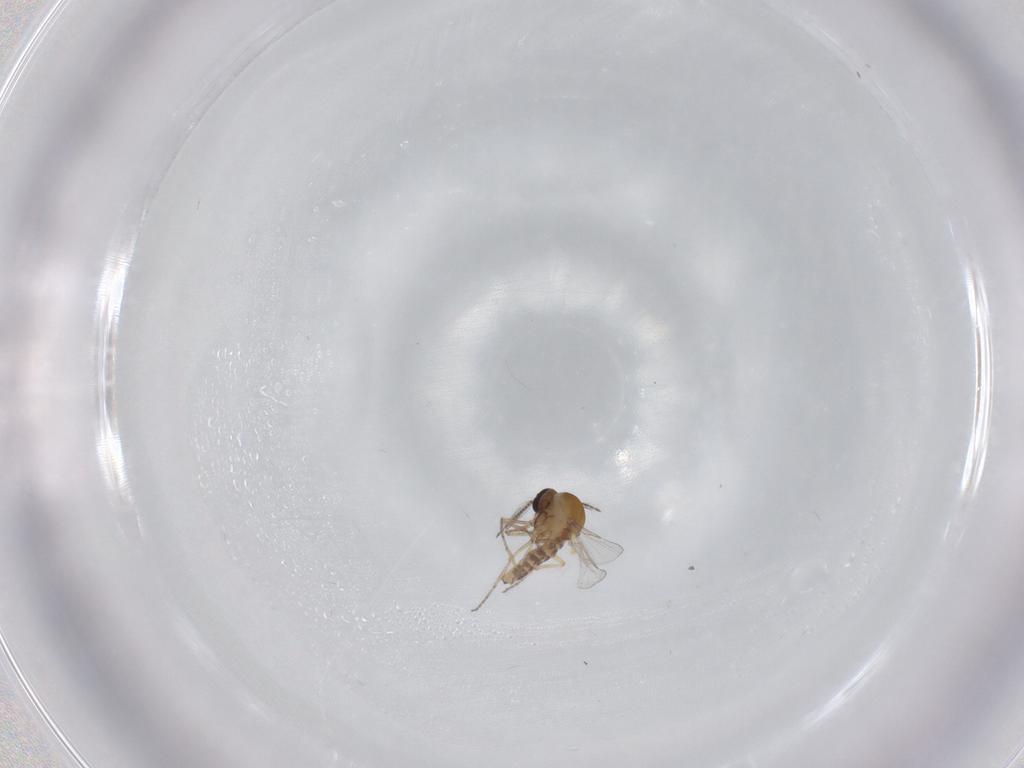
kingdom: Animalia
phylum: Arthropoda
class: Insecta
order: Diptera
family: Ceratopogonidae
